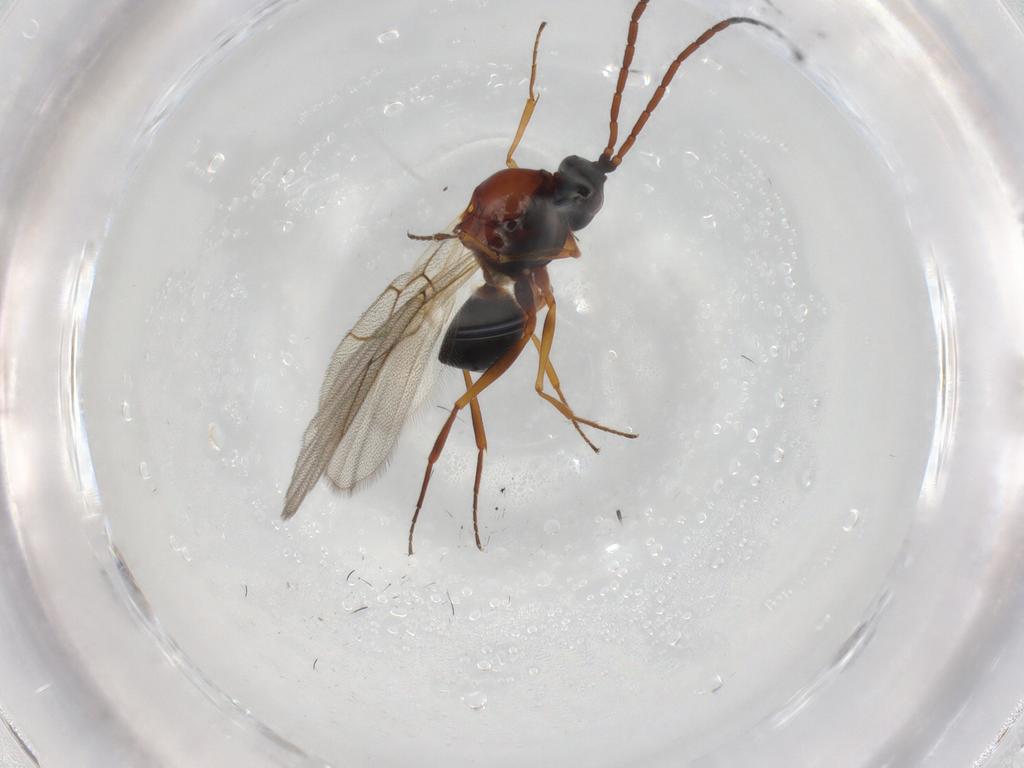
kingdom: Animalia
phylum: Arthropoda
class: Insecta
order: Hymenoptera
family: Figitidae
